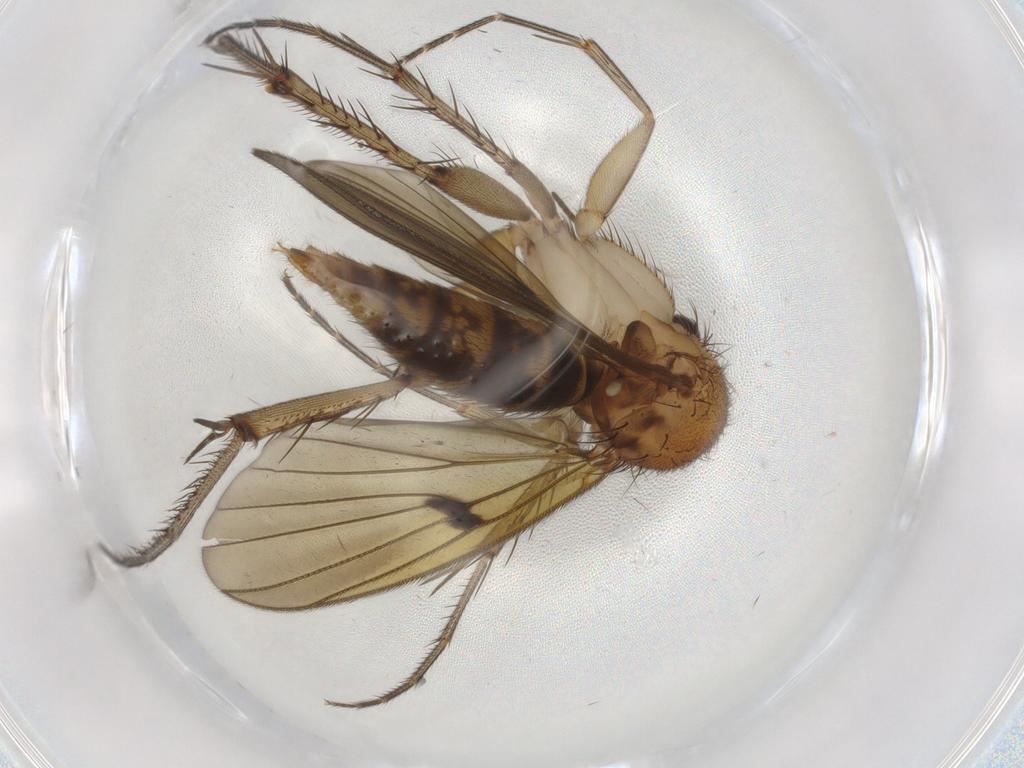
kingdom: Animalia
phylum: Arthropoda
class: Insecta
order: Diptera
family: Mycetophilidae
